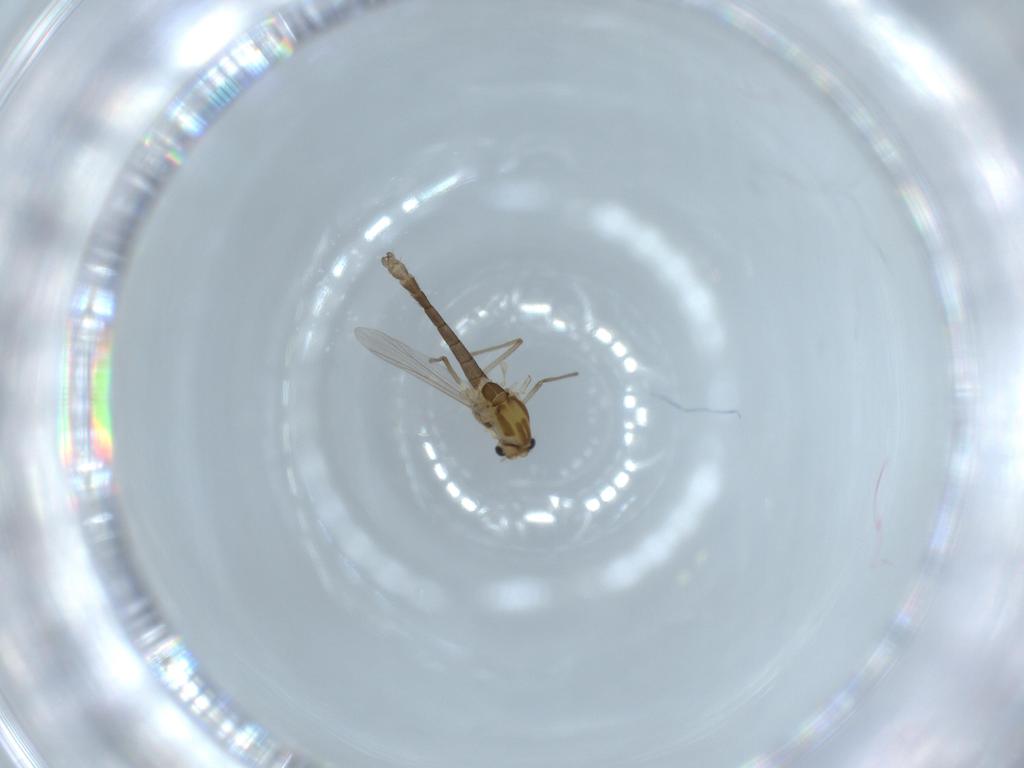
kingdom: Animalia
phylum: Arthropoda
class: Insecta
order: Diptera
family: Chironomidae
